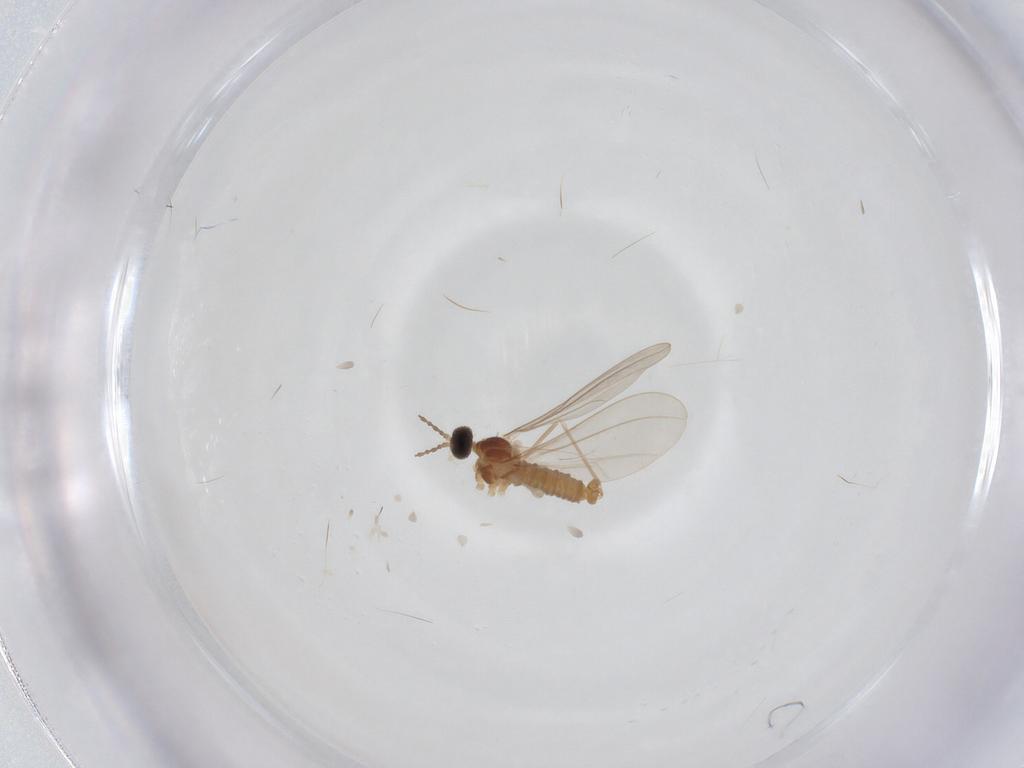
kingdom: Animalia
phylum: Arthropoda
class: Insecta
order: Diptera
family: Cecidomyiidae
